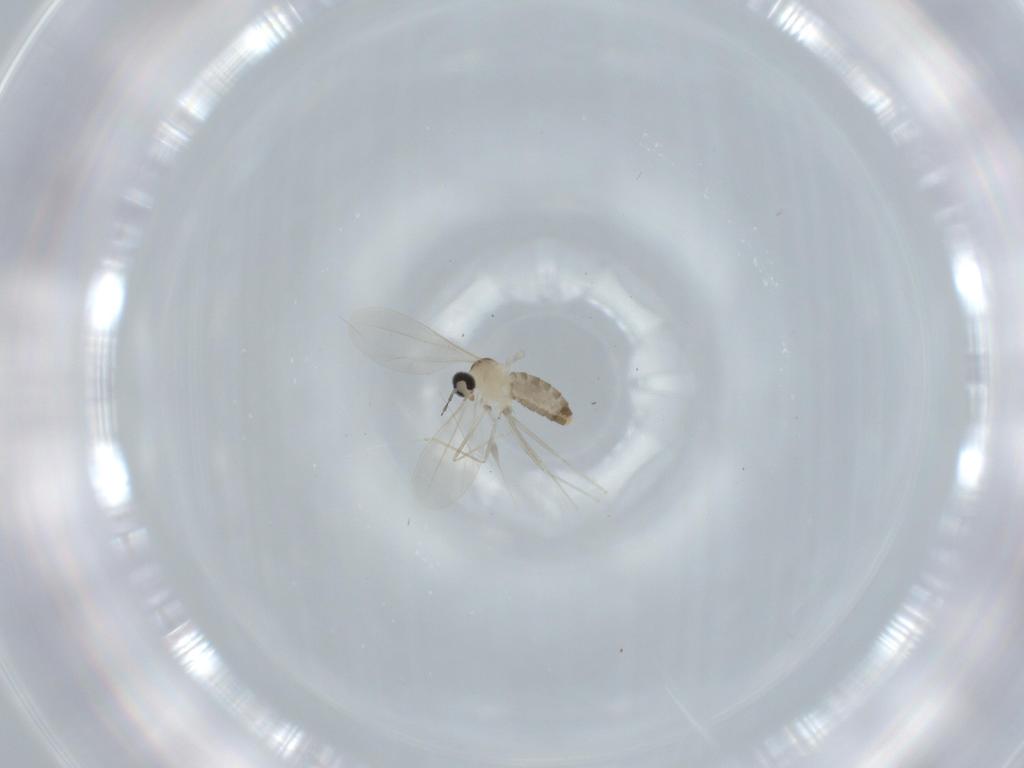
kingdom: Animalia
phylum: Arthropoda
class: Insecta
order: Diptera
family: Cecidomyiidae
